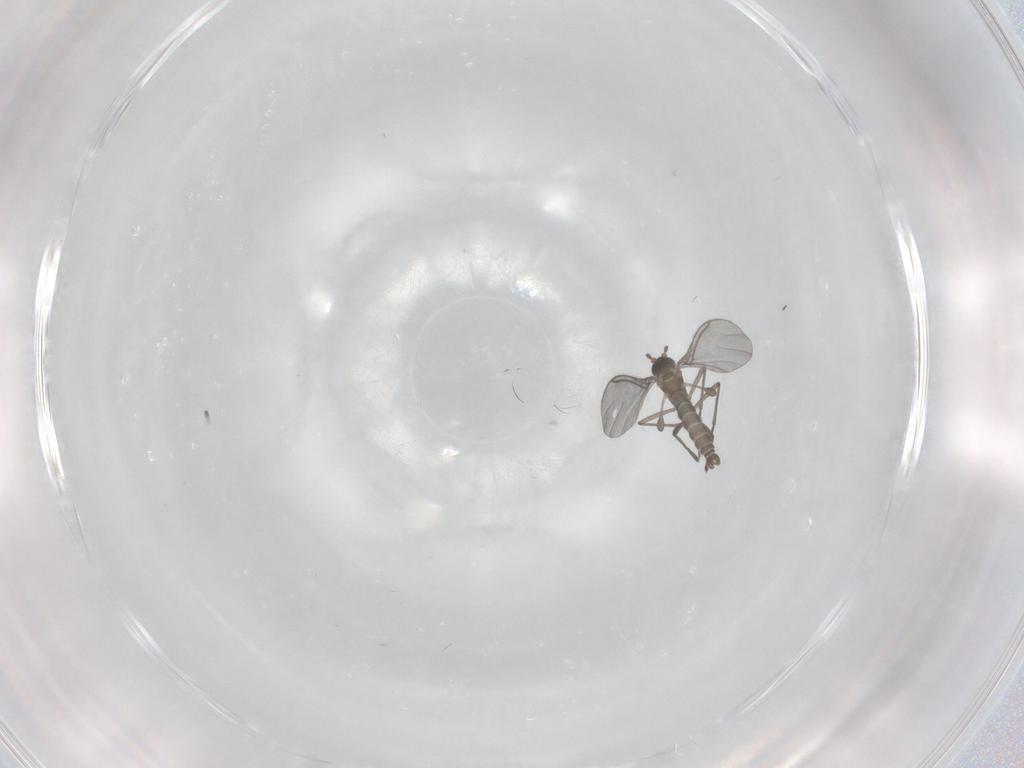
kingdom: Animalia
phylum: Arthropoda
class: Insecta
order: Diptera
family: Sciaridae
